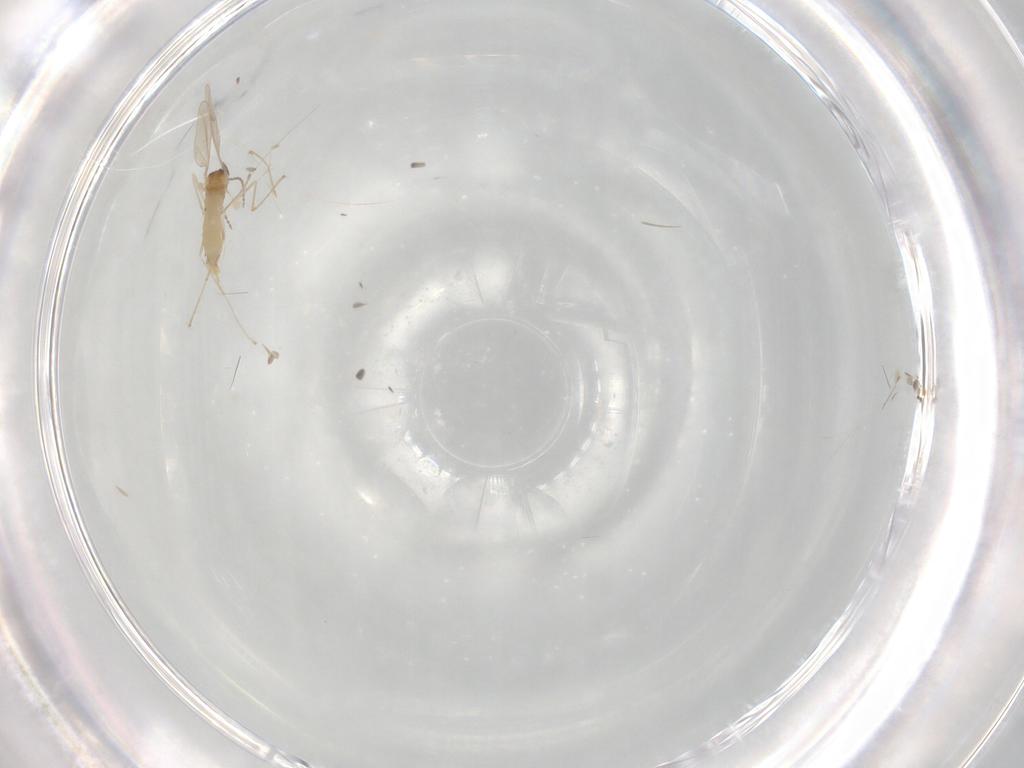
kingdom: Animalia
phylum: Arthropoda
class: Insecta
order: Diptera
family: Cecidomyiidae
